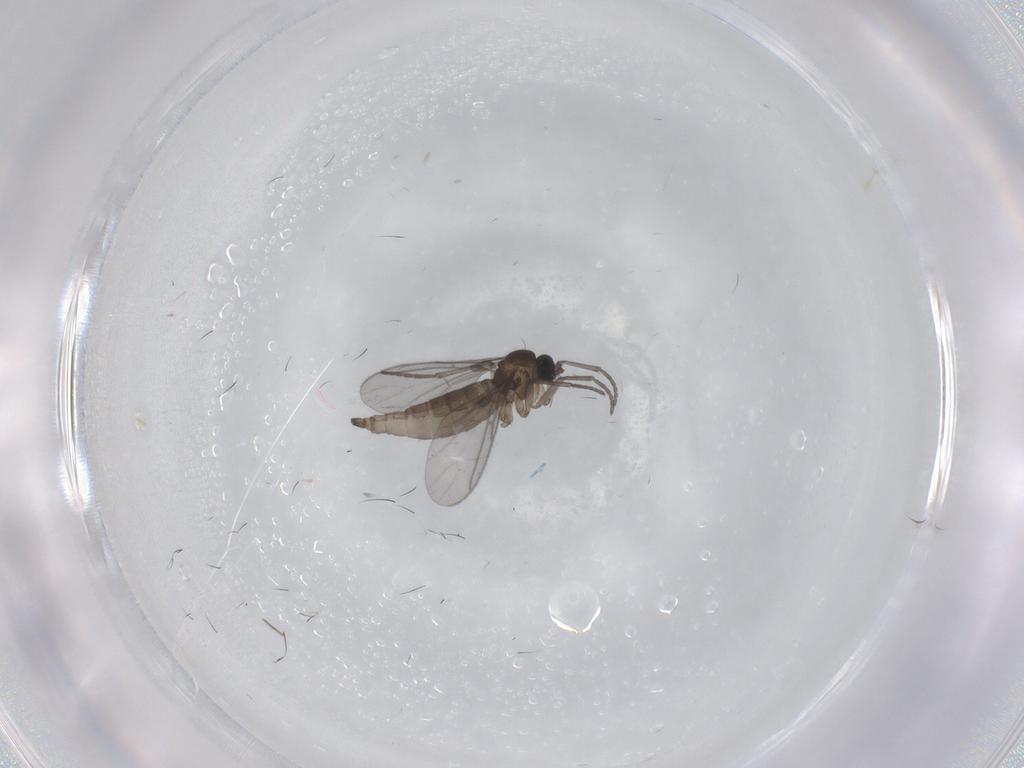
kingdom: Animalia
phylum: Arthropoda
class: Insecta
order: Diptera
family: Sciaridae
